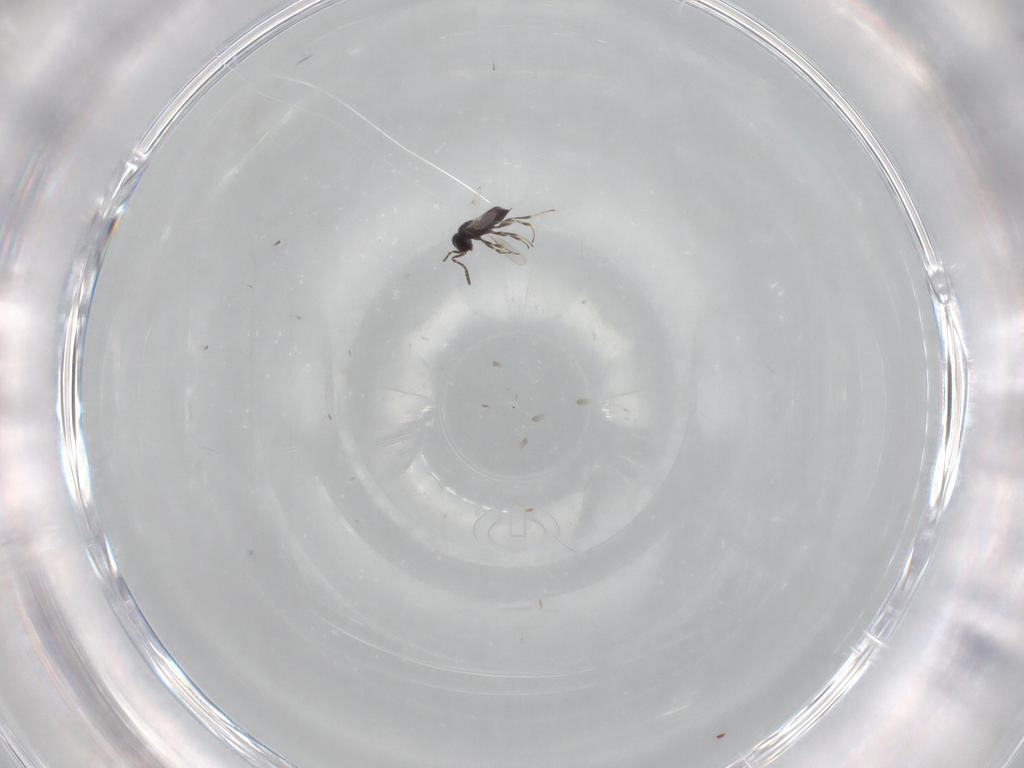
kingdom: Animalia
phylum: Arthropoda
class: Insecta
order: Hymenoptera
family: Scelionidae
